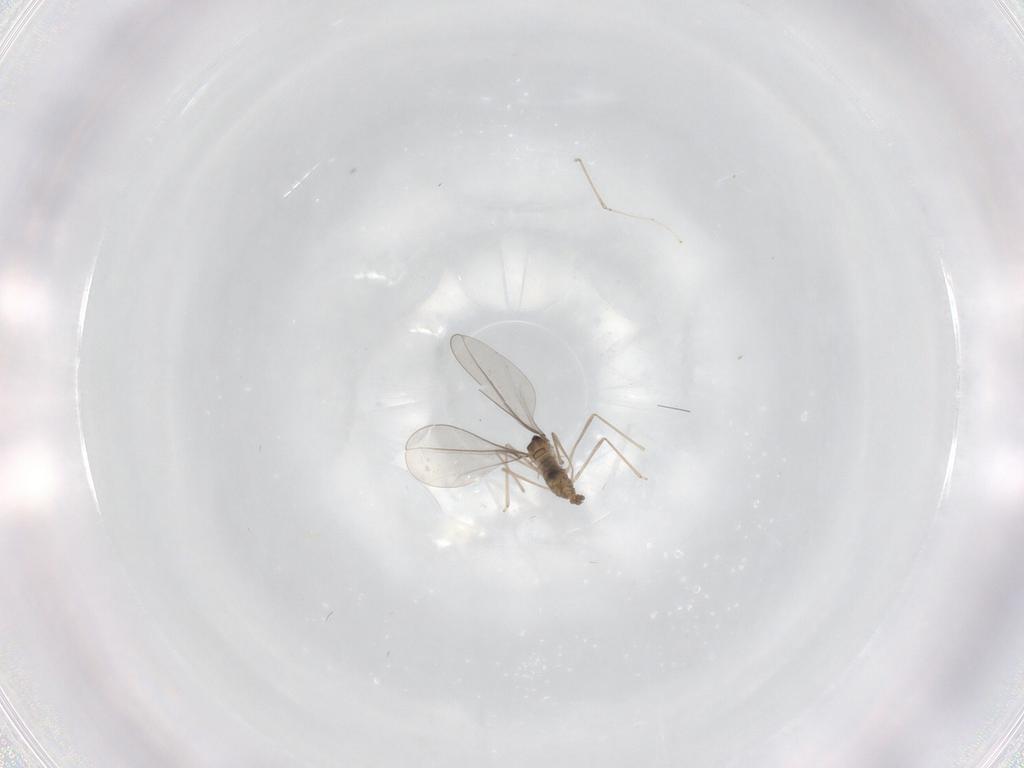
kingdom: Animalia
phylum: Arthropoda
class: Insecta
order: Diptera
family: Cecidomyiidae
